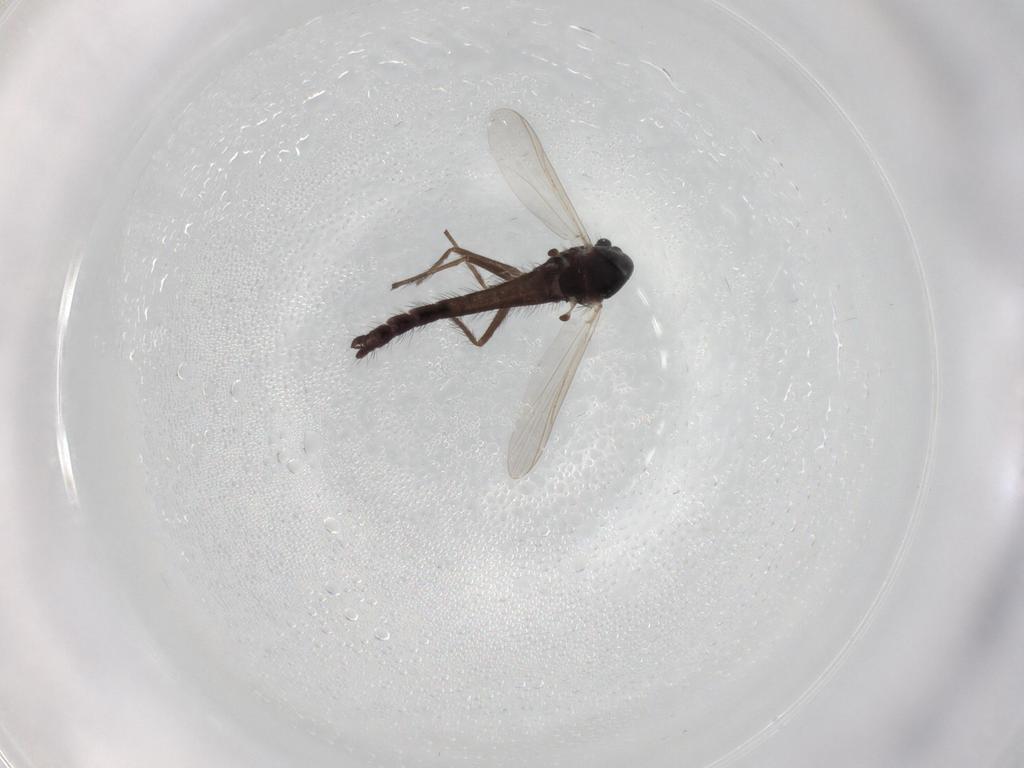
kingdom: Animalia
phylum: Arthropoda
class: Insecta
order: Diptera
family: Chironomidae
